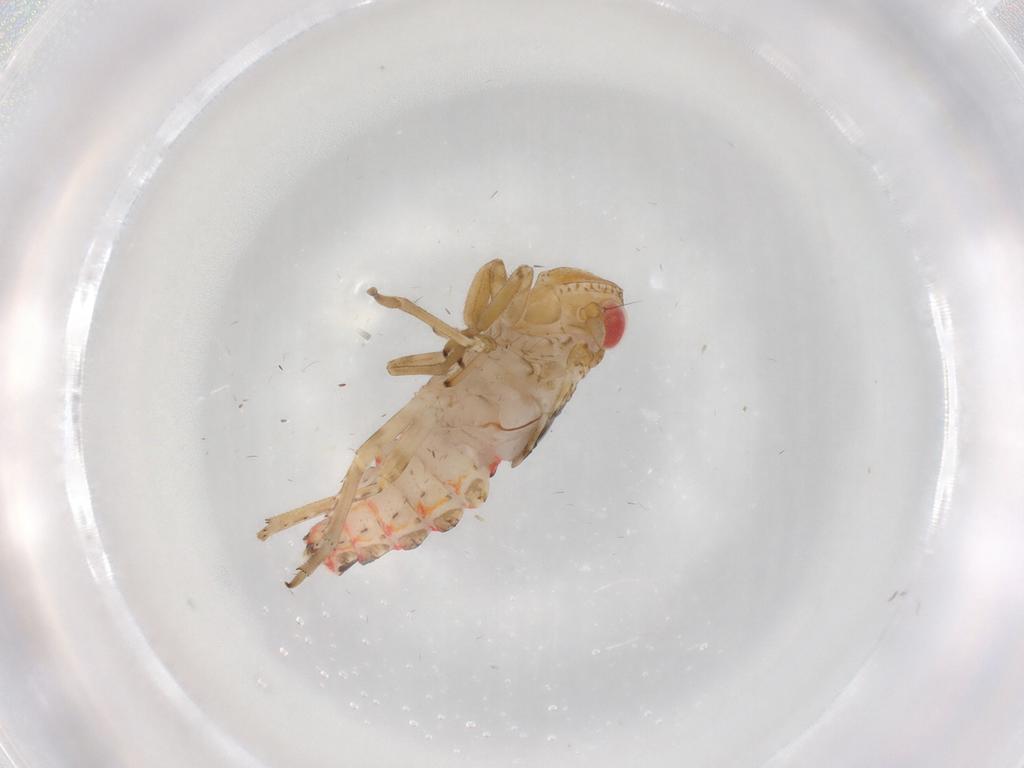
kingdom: Animalia
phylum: Arthropoda
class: Insecta
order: Hemiptera
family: Fulgoroidea_incertae_sedis
